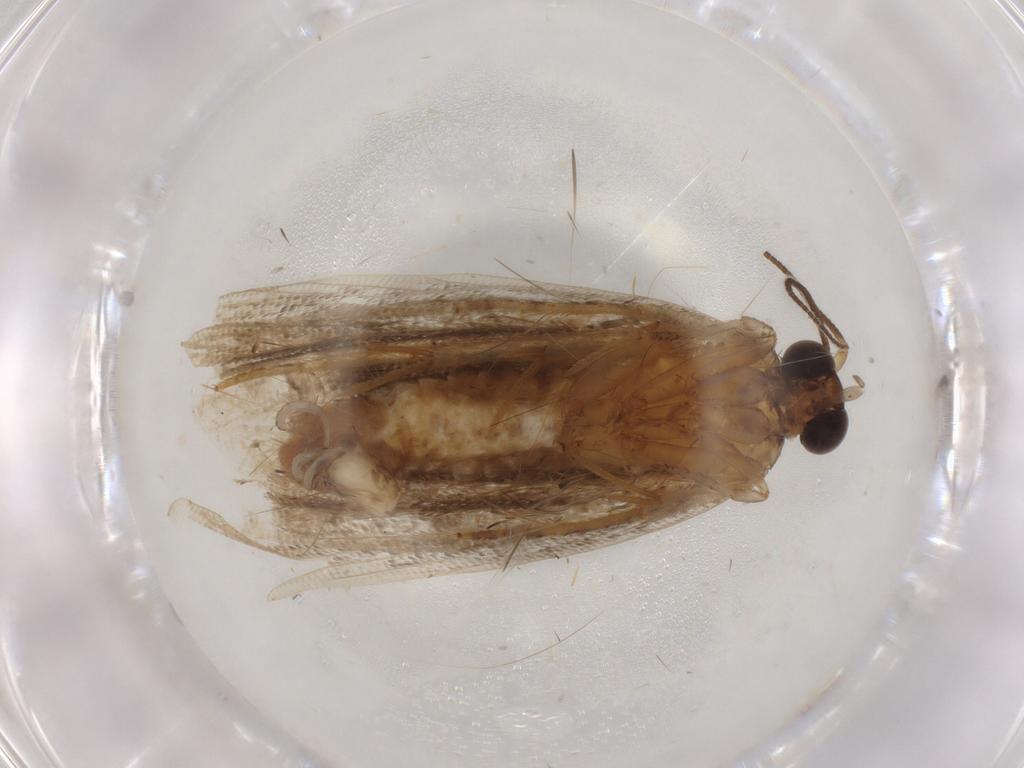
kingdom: Animalia
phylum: Arthropoda
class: Insecta
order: Lepidoptera
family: Tortricidae
